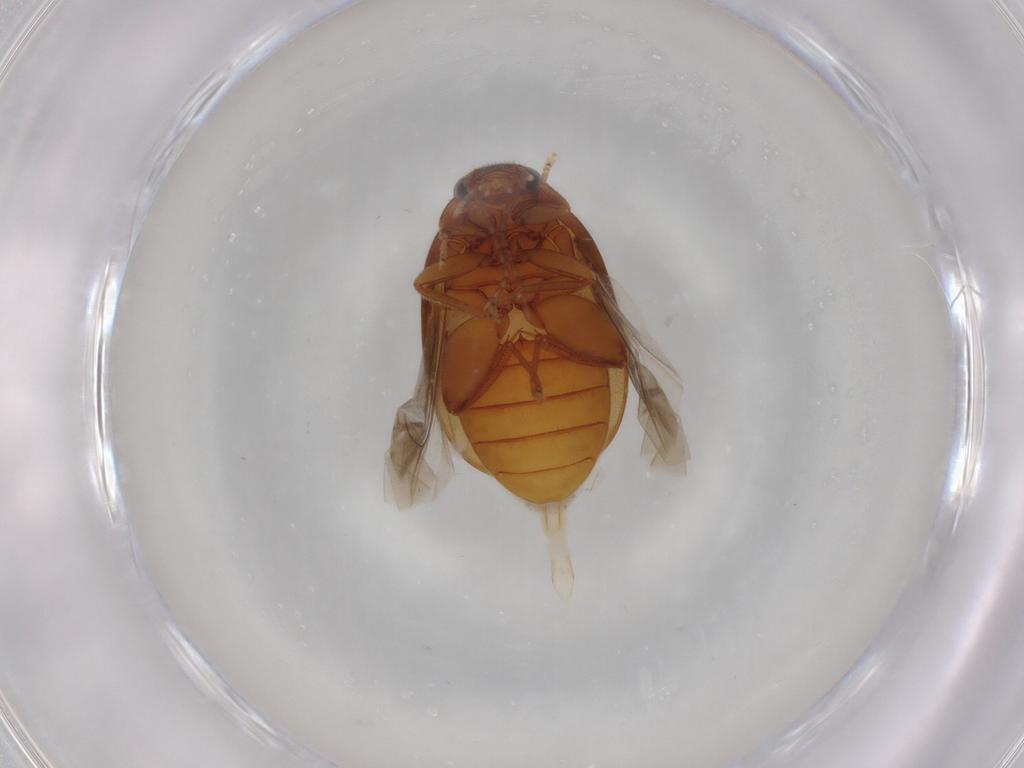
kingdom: Animalia
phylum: Arthropoda
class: Insecta
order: Coleoptera
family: Scirtidae
